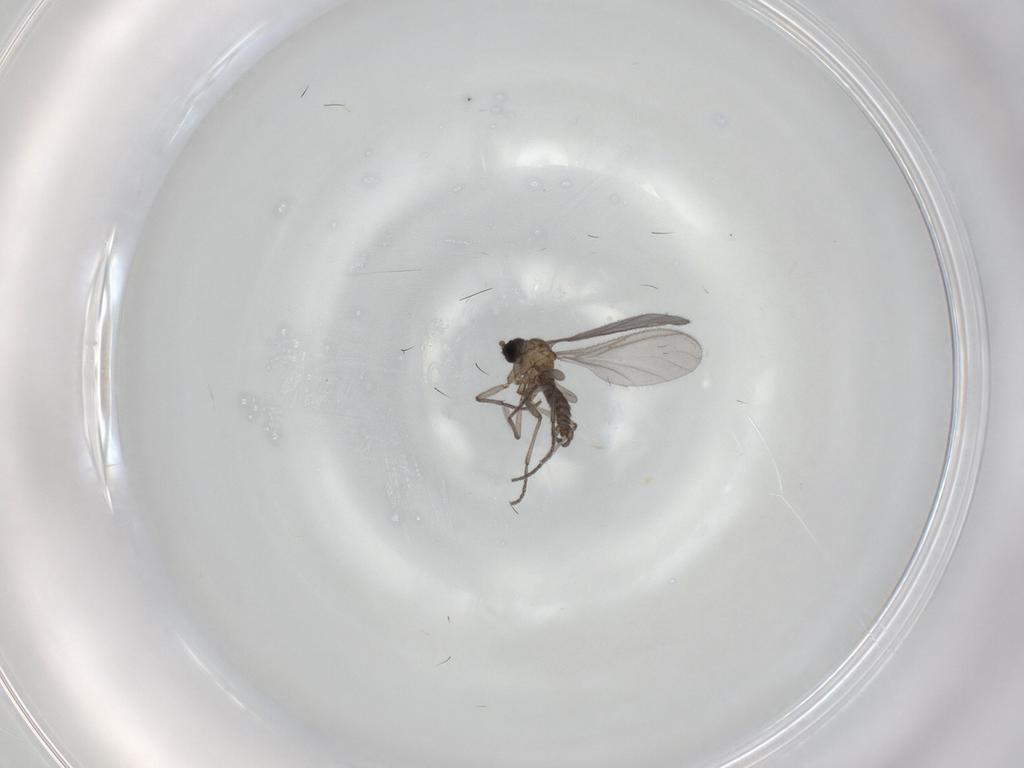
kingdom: Animalia
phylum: Arthropoda
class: Insecta
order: Diptera
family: Sciaridae
